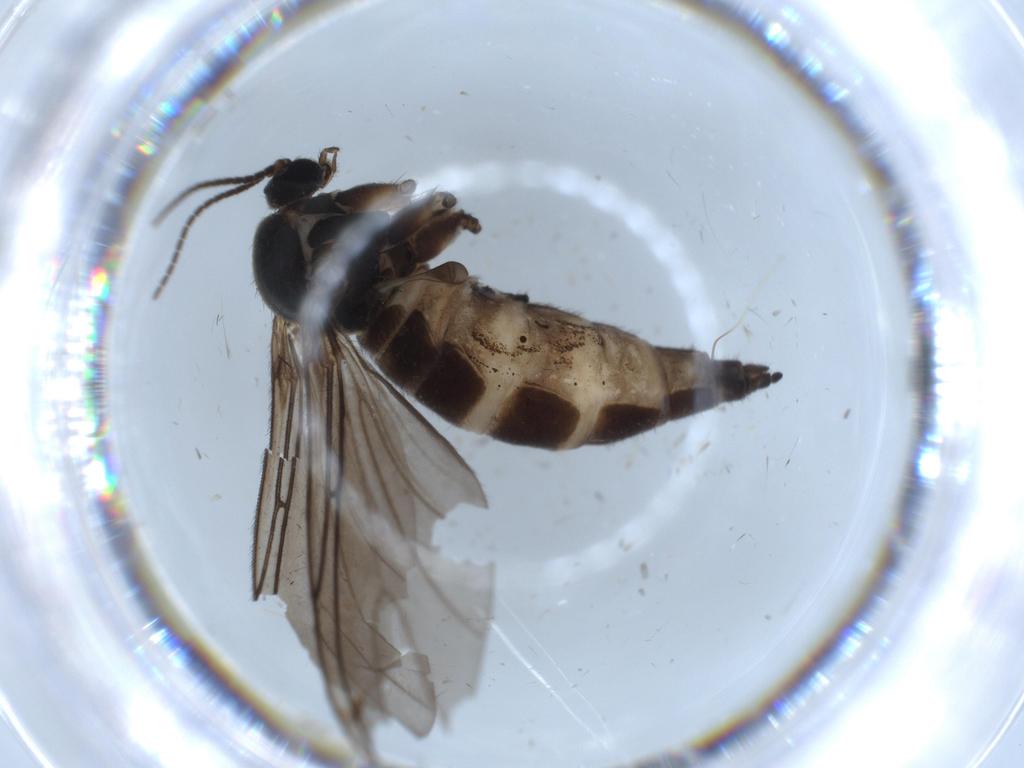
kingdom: Animalia
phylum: Arthropoda
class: Insecta
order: Diptera
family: Sciaridae
